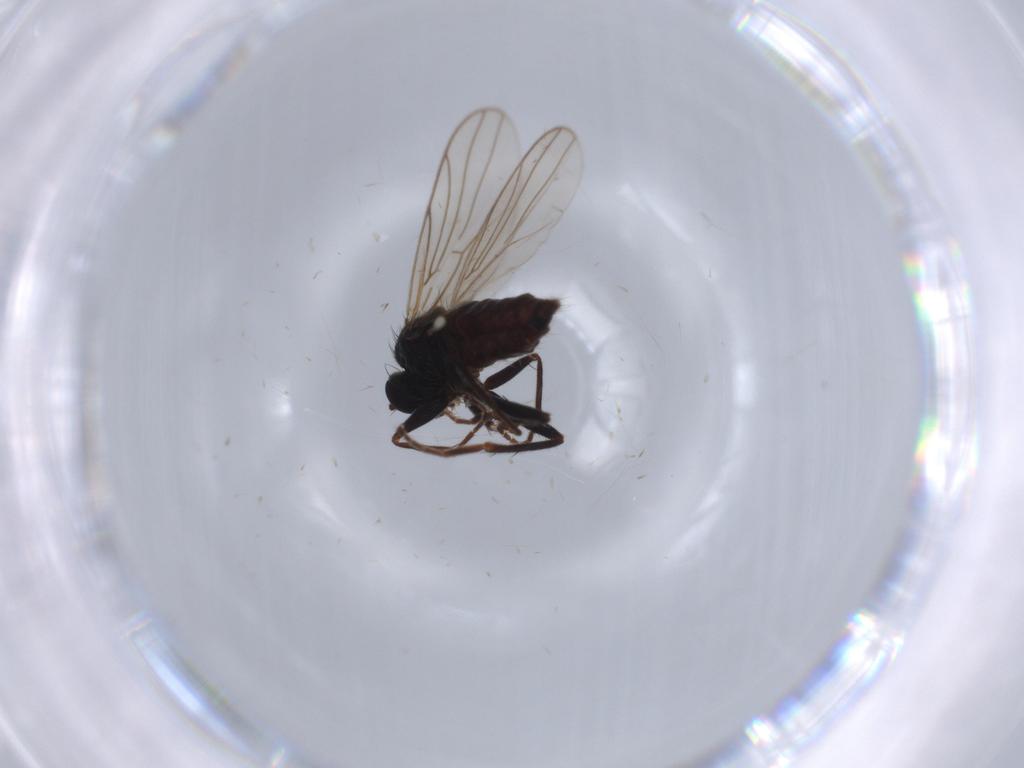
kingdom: Animalia
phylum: Arthropoda
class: Insecta
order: Diptera
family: Hybotidae
